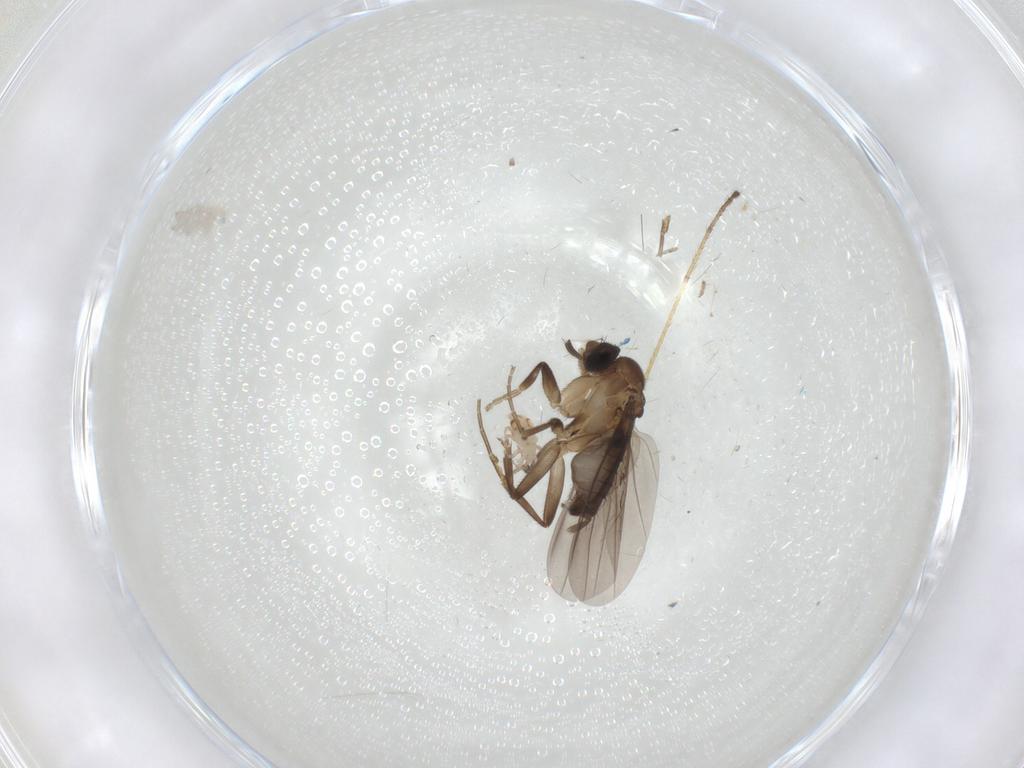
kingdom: Animalia
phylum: Arthropoda
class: Insecta
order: Diptera
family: Phoridae
